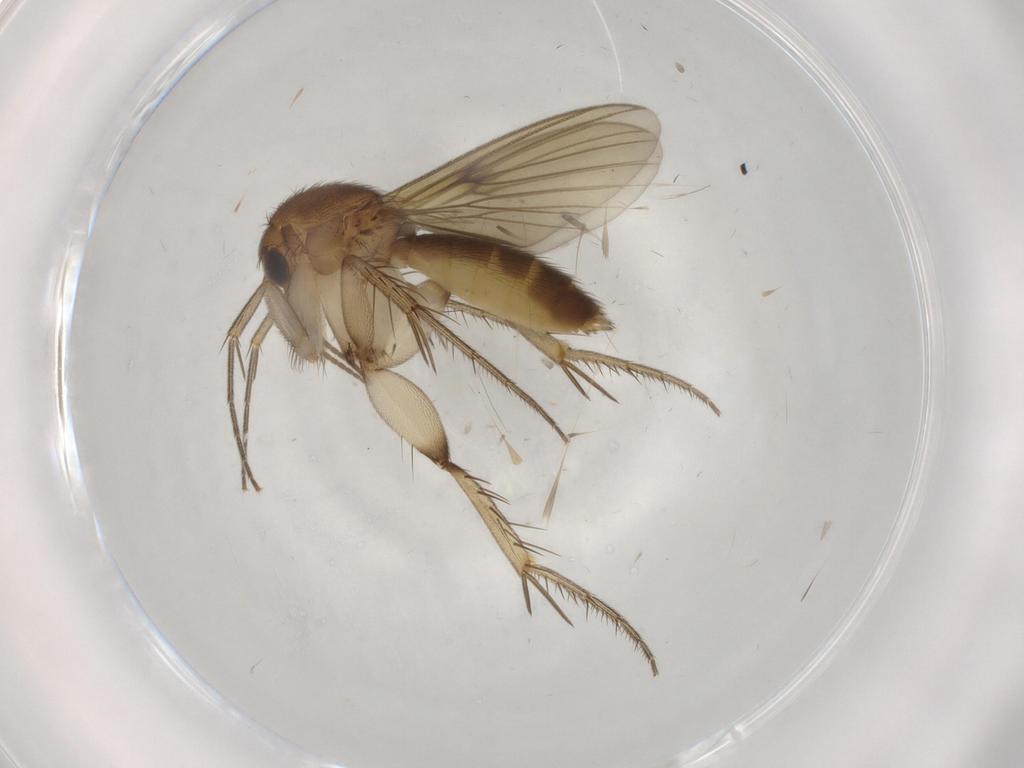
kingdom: Animalia
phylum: Arthropoda
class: Insecta
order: Diptera
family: Mycetophilidae
